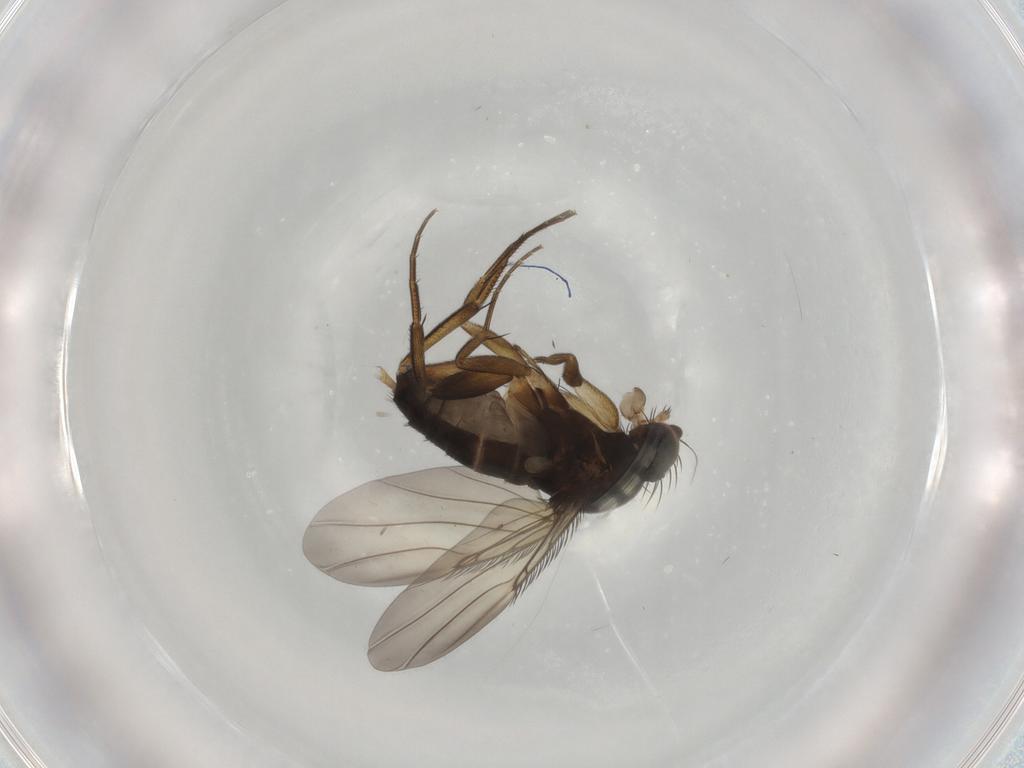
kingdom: Animalia
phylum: Arthropoda
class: Insecta
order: Diptera
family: Phoridae
